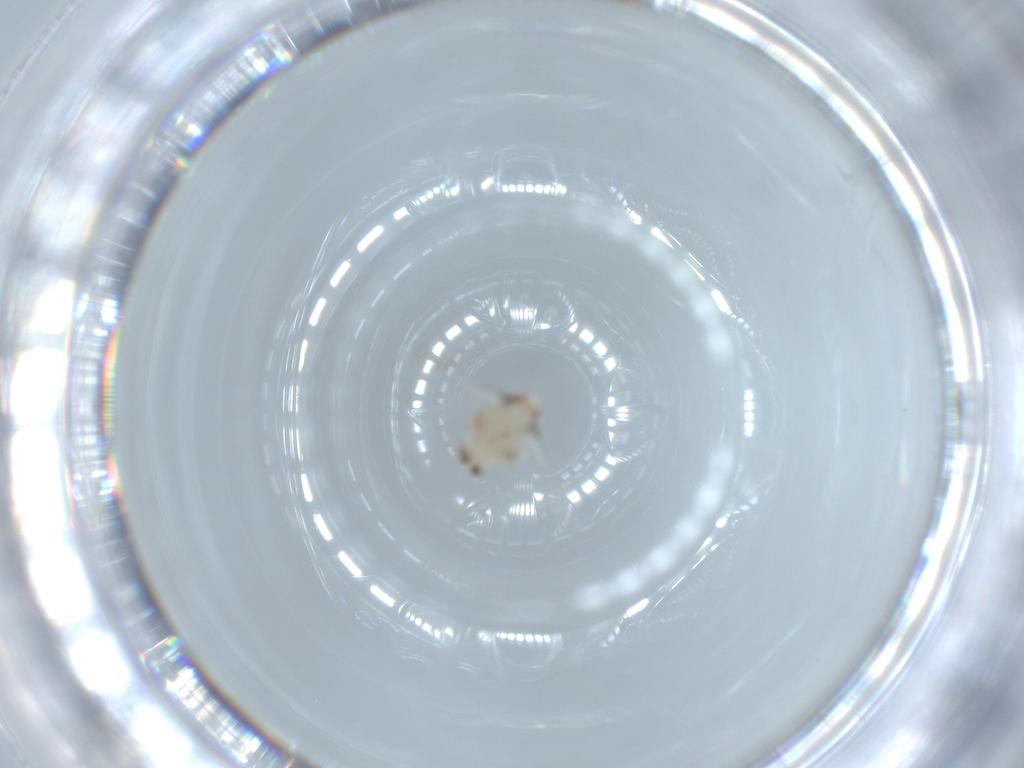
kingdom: Animalia
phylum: Arthropoda
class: Insecta
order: Hemiptera
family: Nogodinidae
